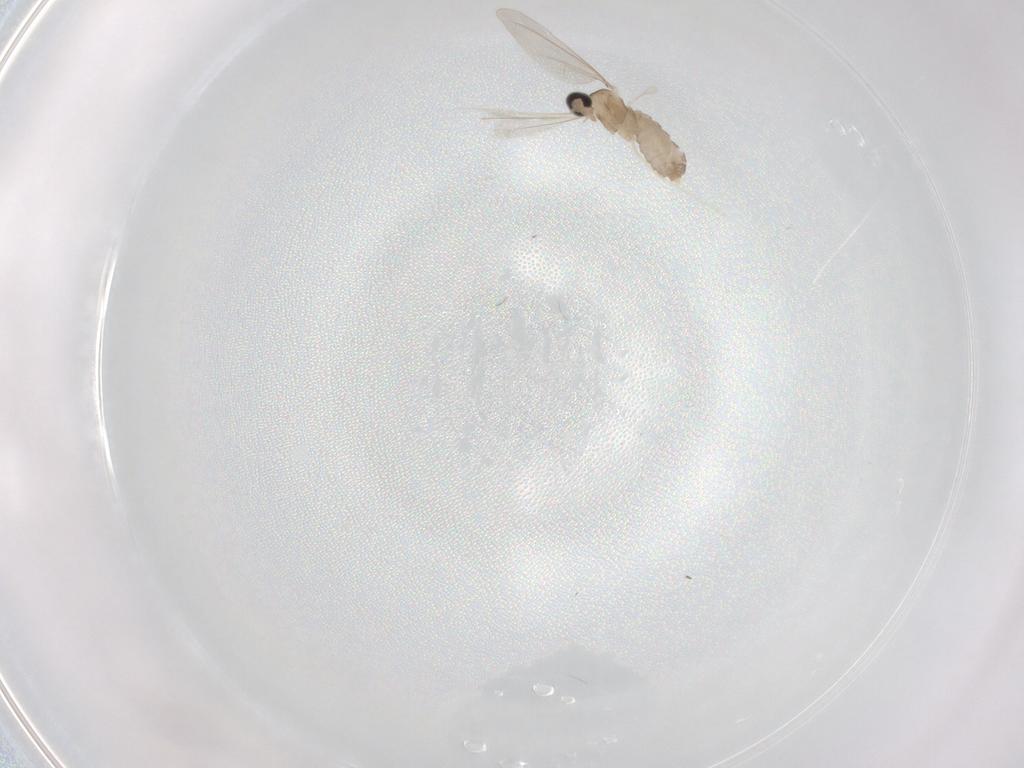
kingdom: Animalia
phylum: Arthropoda
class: Insecta
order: Diptera
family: Cecidomyiidae
